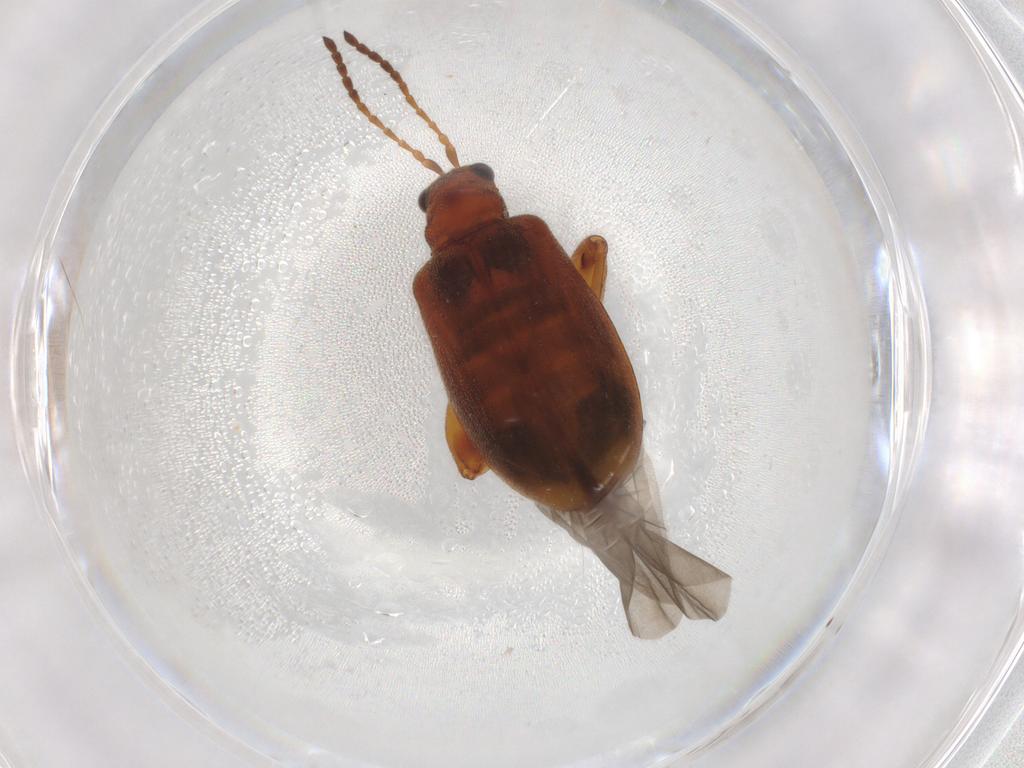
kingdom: Animalia
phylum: Arthropoda
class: Insecta
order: Coleoptera
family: Chrysomelidae
